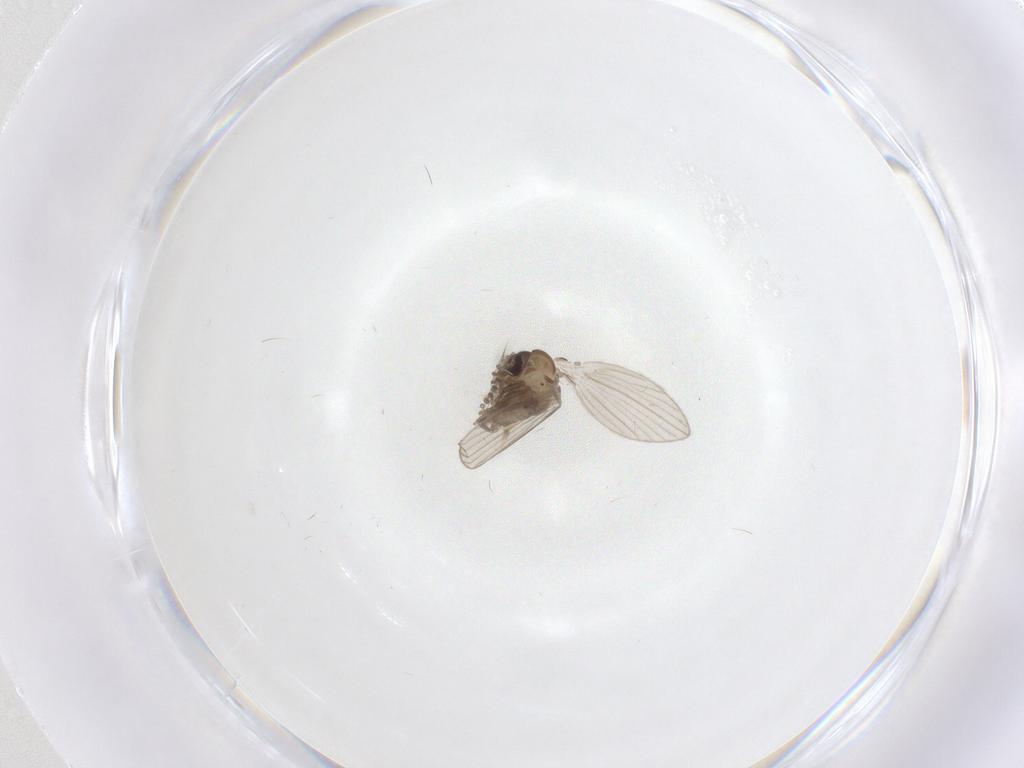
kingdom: Animalia
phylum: Arthropoda
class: Insecta
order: Diptera
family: Psychodidae
